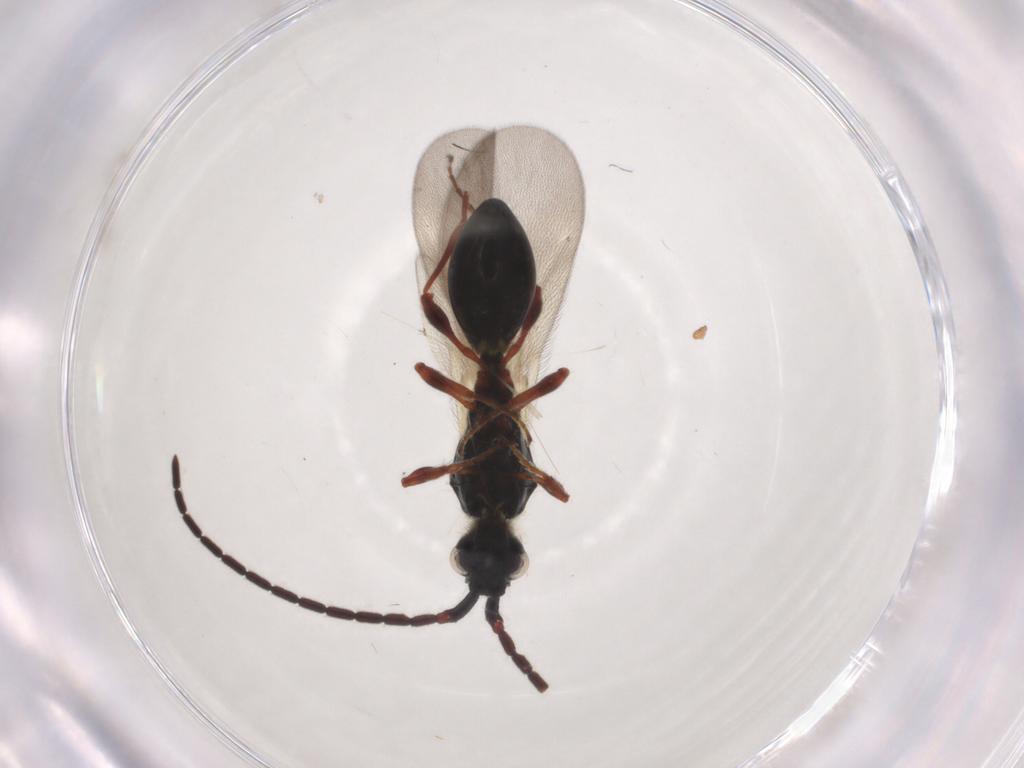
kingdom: Animalia
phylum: Arthropoda
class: Insecta
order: Hymenoptera
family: Diapriidae
